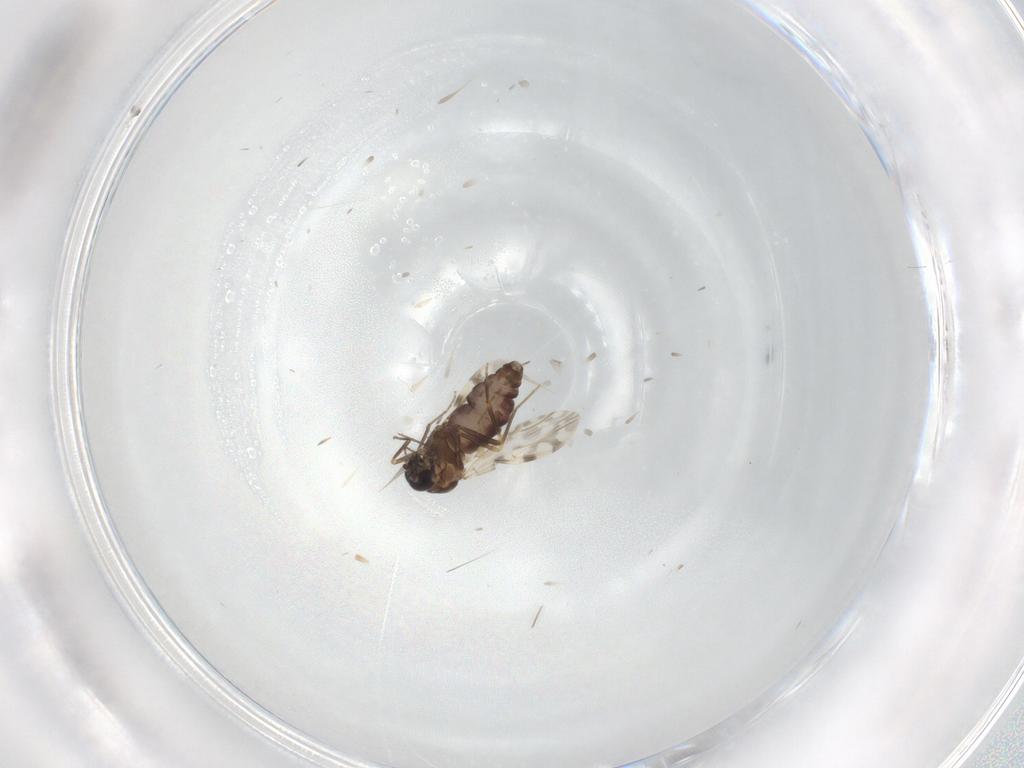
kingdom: Animalia
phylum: Arthropoda
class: Insecta
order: Diptera
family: Ceratopogonidae
